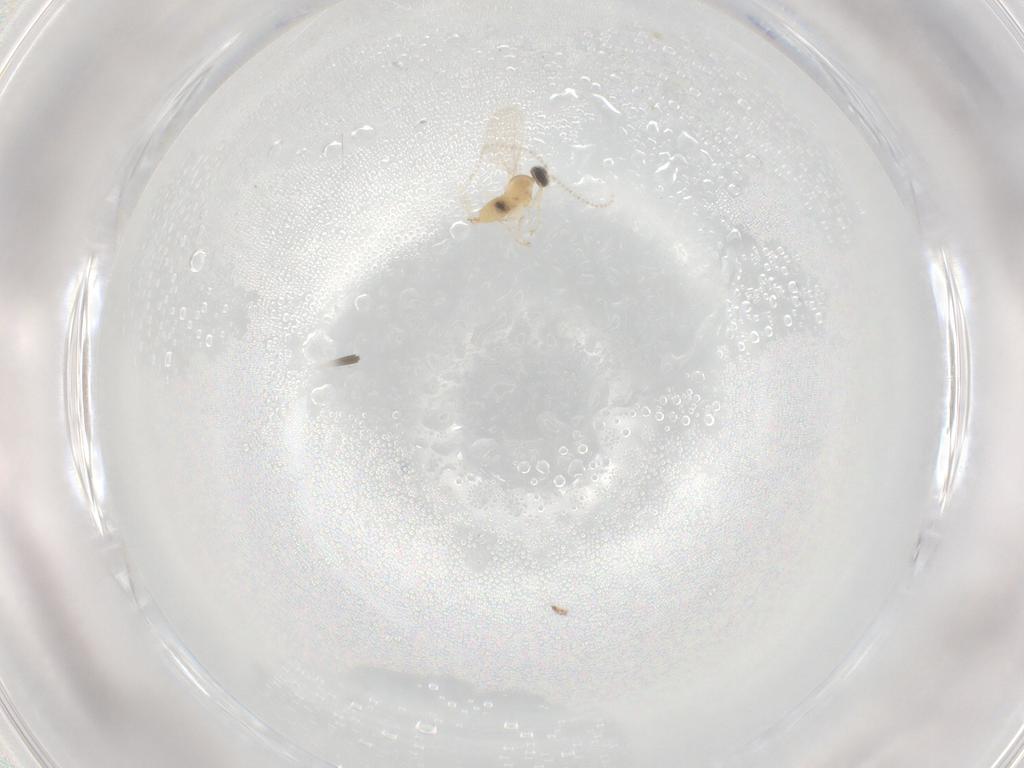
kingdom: Animalia
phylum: Arthropoda
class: Insecta
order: Diptera
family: Cecidomyiidae
